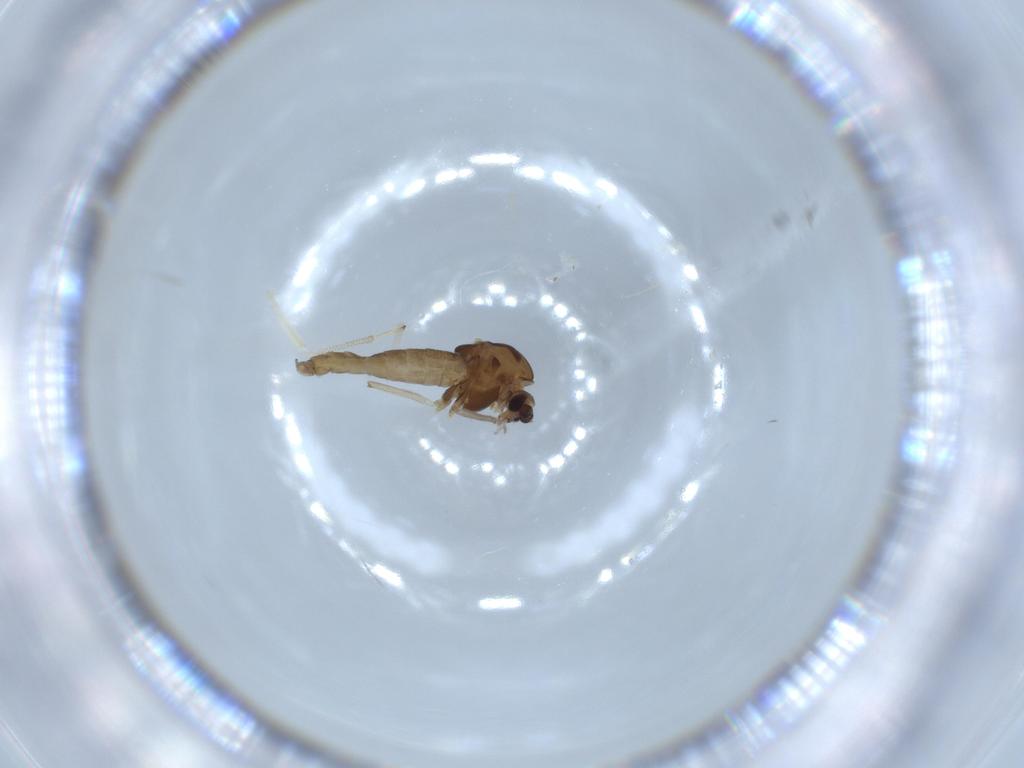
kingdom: Animalia
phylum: Arthropoda
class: Insecta
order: Diptera
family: Chironomidae
